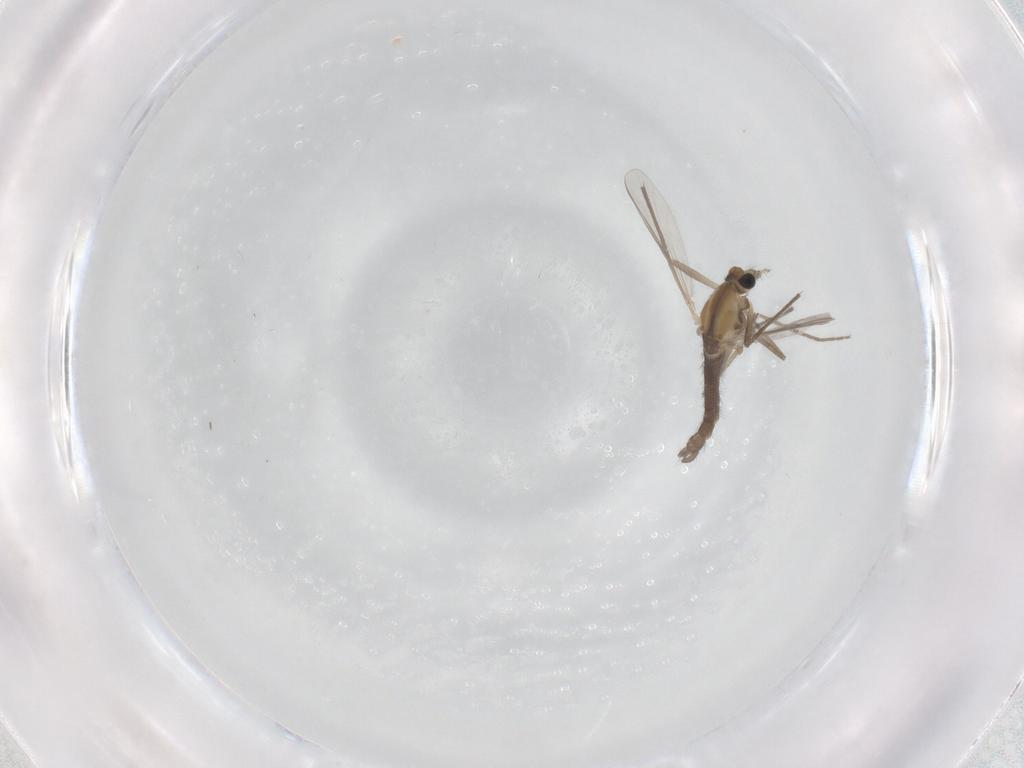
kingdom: Animalia
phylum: Arthropoda
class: Insecta
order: Diptera
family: Chironomidae
